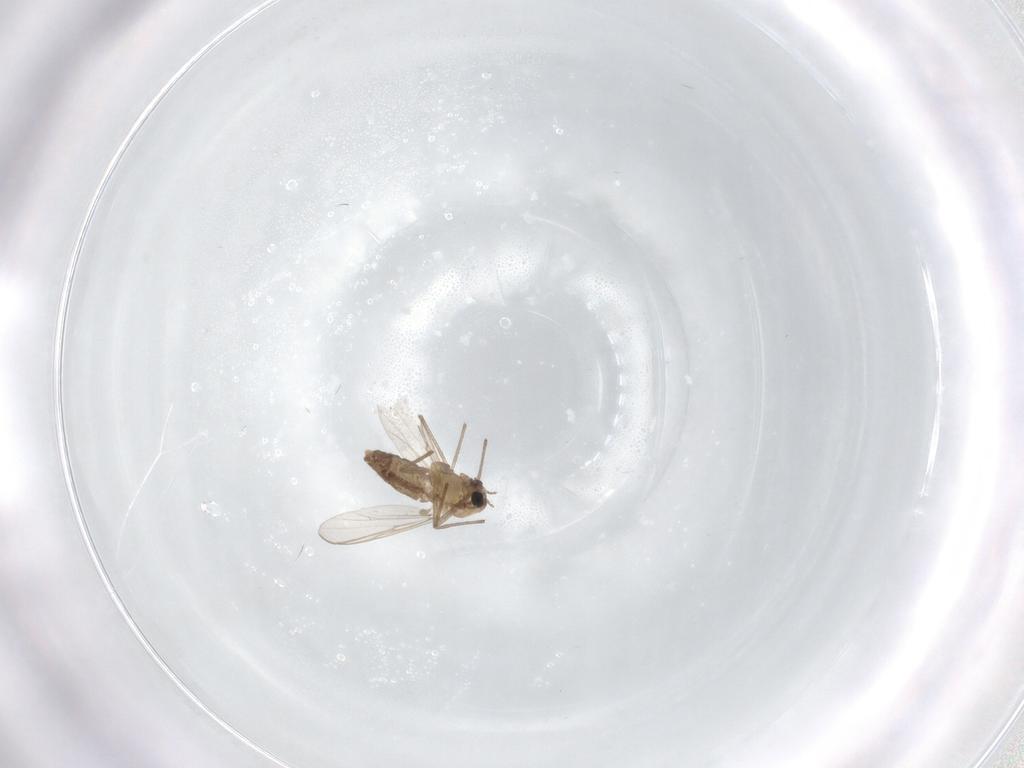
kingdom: Animalia
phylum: Arthropoda
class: Insecta
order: Diptera
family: Chironomidae
